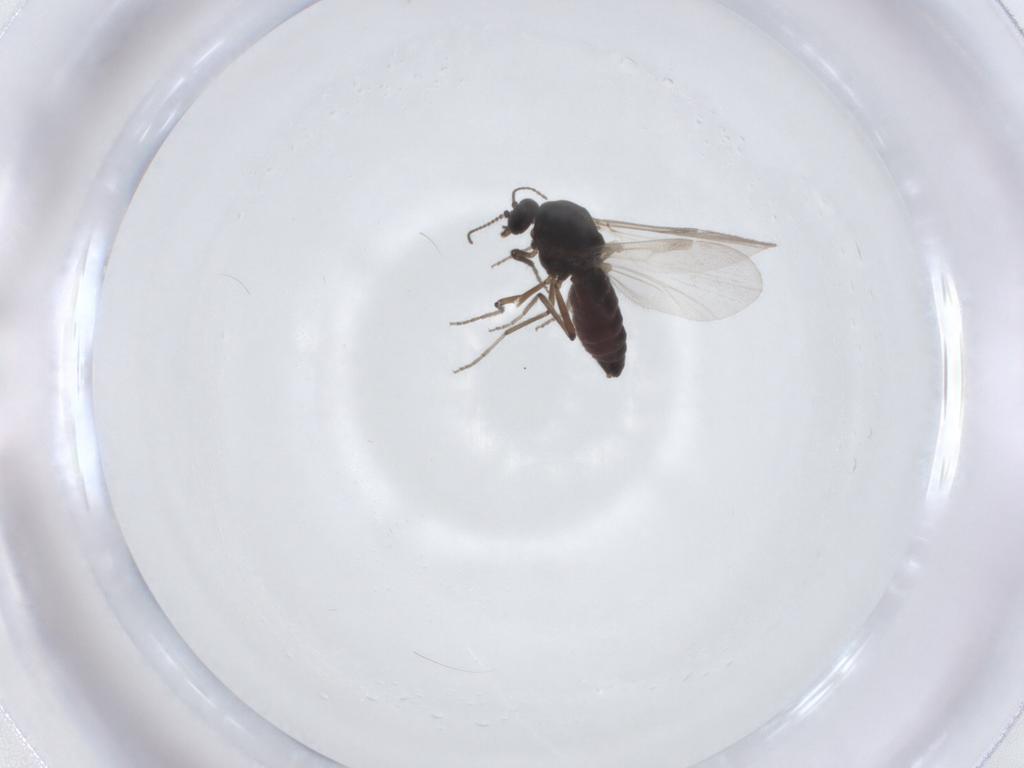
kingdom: Animalia
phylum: Arthropoda
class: Insecta
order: Diptera
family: Ceratopogonidae
